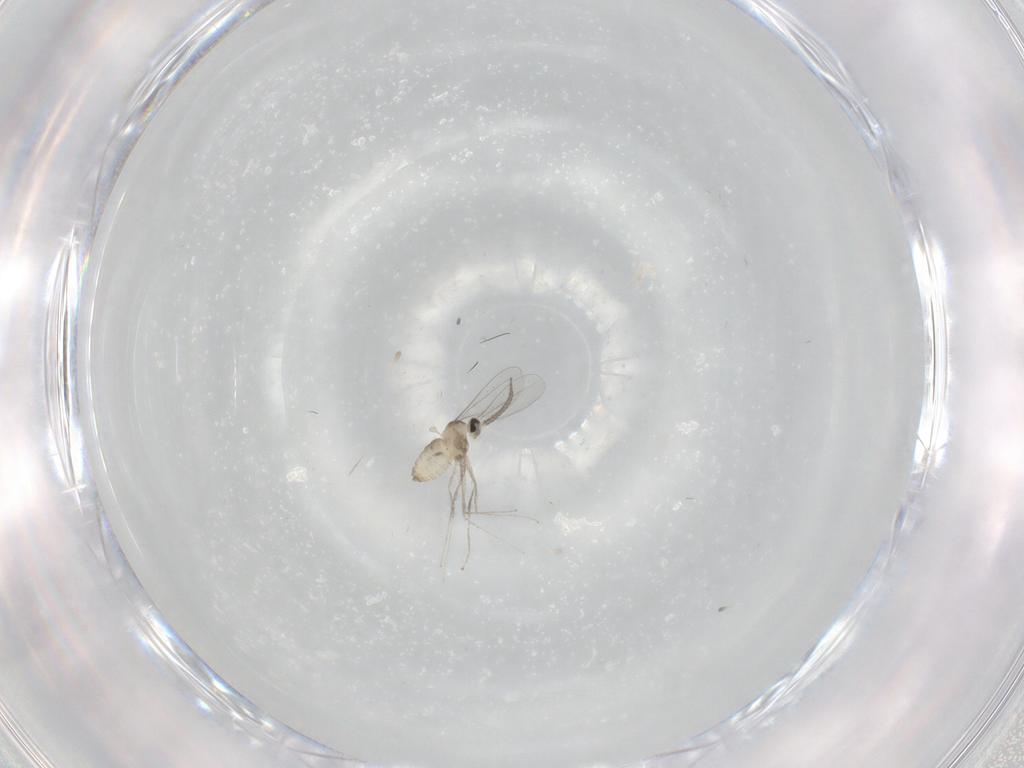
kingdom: Animalia
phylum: Arthropoda
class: Insecta
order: Diptera
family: Cecidomyiidae
